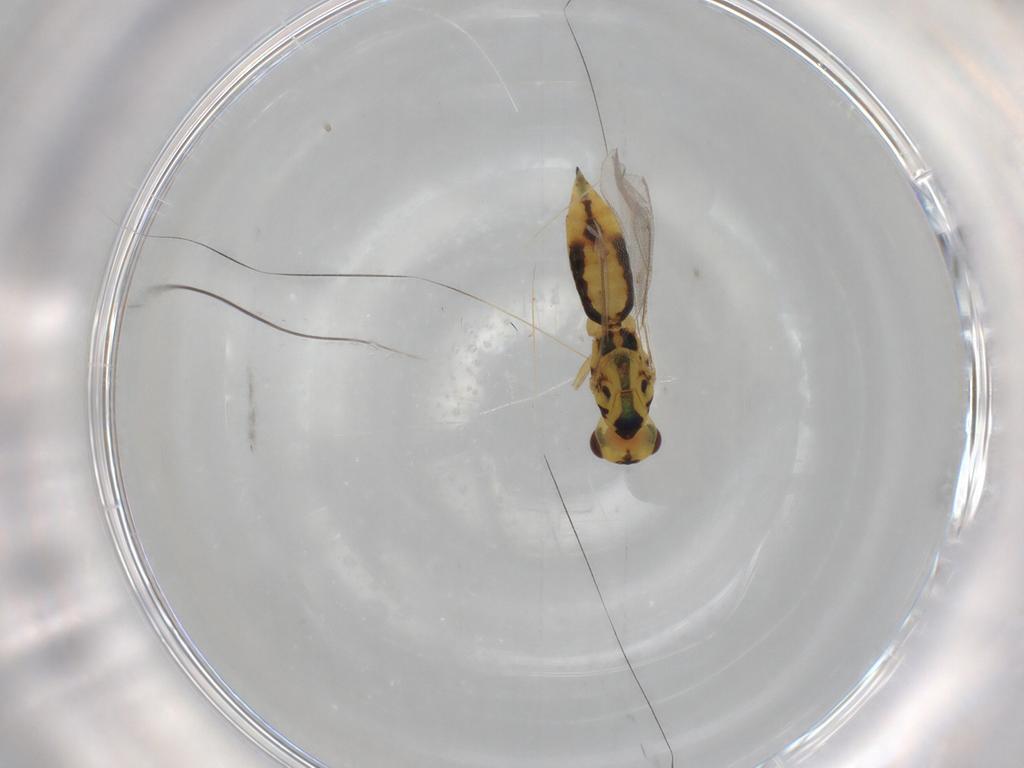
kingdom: Animalia
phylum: Arthropoda
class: Insecta
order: Hymenoptera
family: Eulophidae
